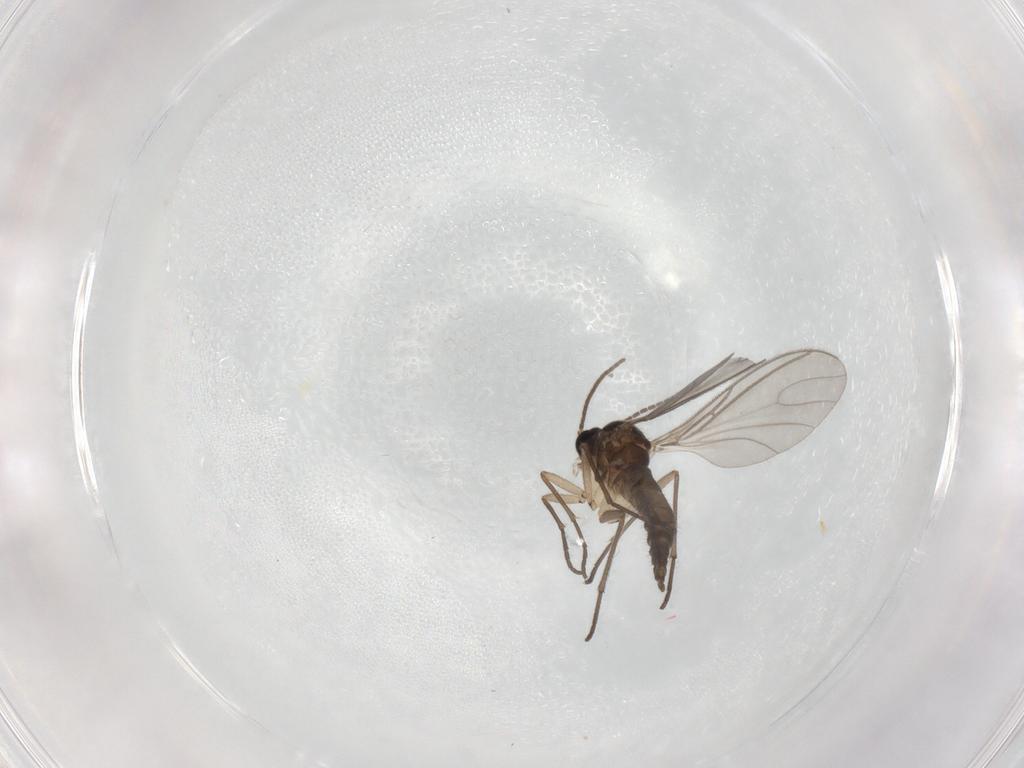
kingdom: Animalia
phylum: Arthropoda
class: Insecta
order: Diptera
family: Sciaridae
